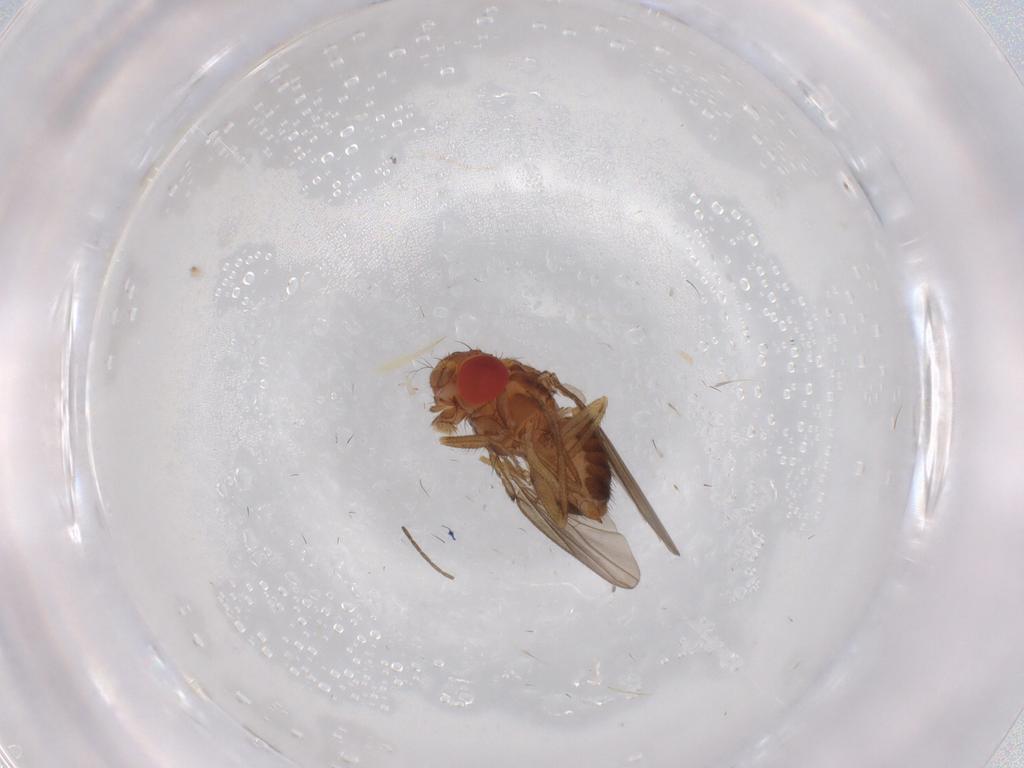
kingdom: Animalia
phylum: Arthropoda
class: Insecta
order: Diptera
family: Drosophilidae
